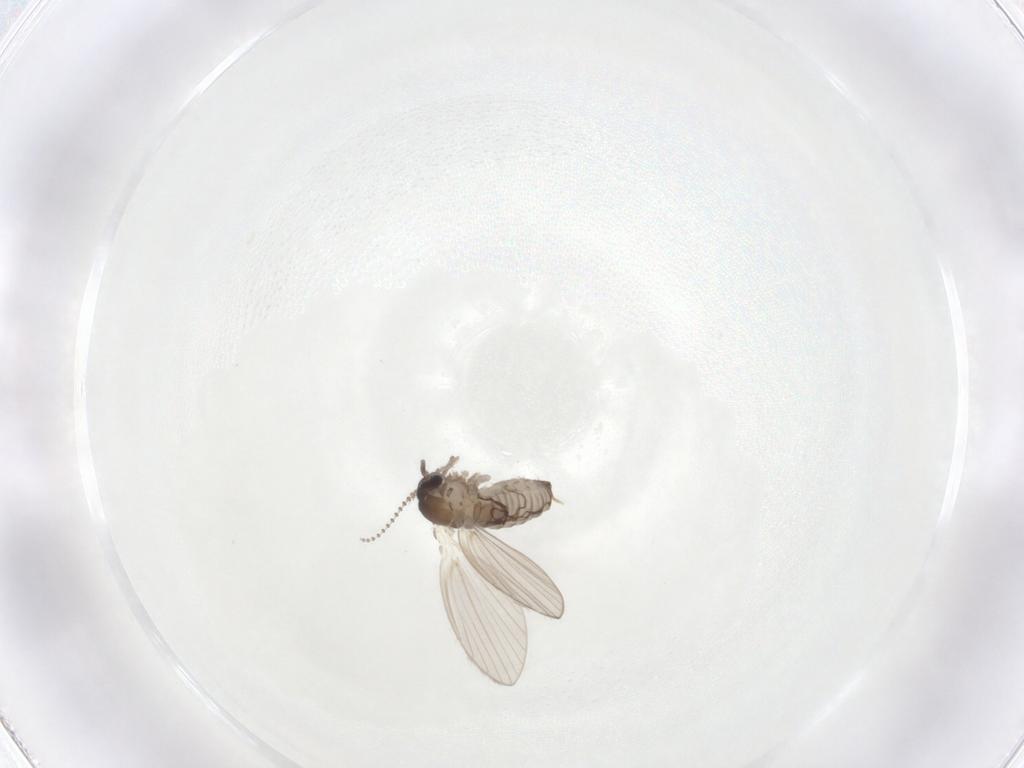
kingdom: Animalia
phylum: Arthropoda
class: Insecta
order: Diptera
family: Psychodidae
